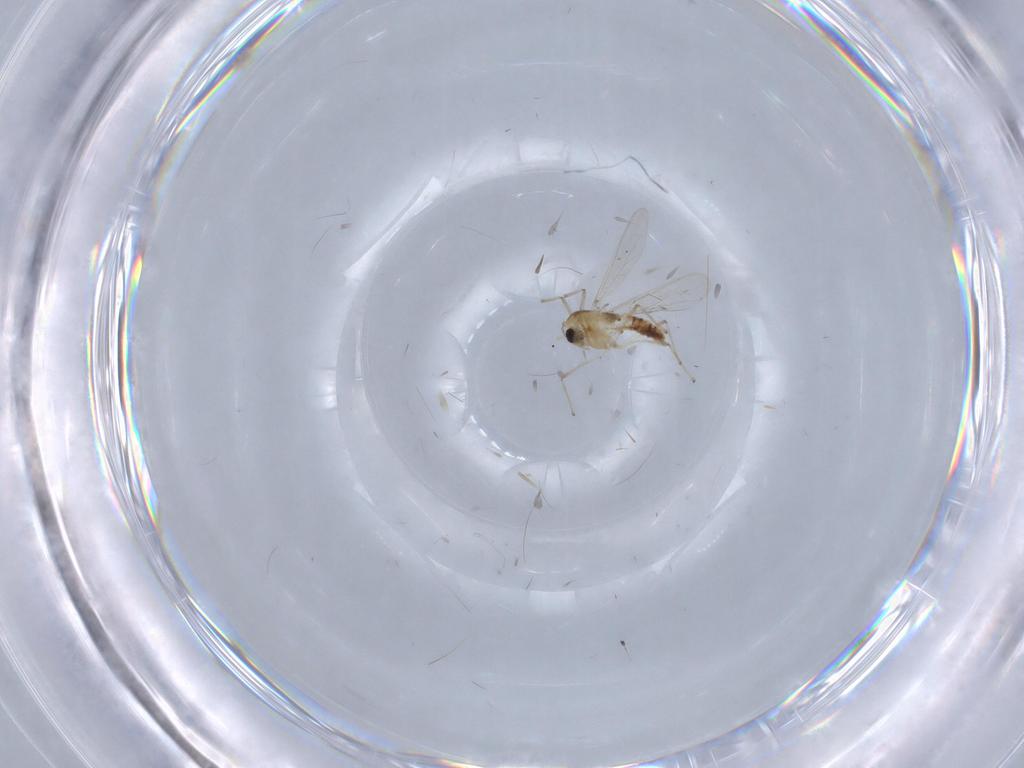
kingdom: Animalia
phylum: Arthropoda
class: Insecta
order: Diptera
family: Chironomidae
